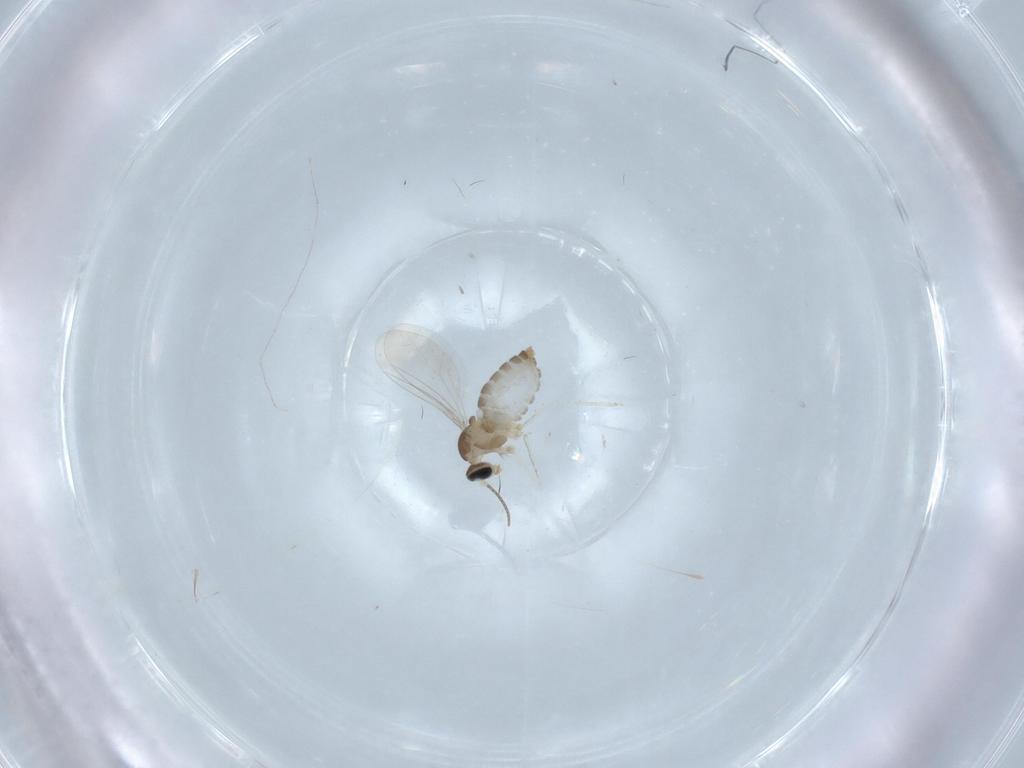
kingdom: Animalia
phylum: Arthropoda
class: Insecta
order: Diptera
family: Cecidomyiidae
